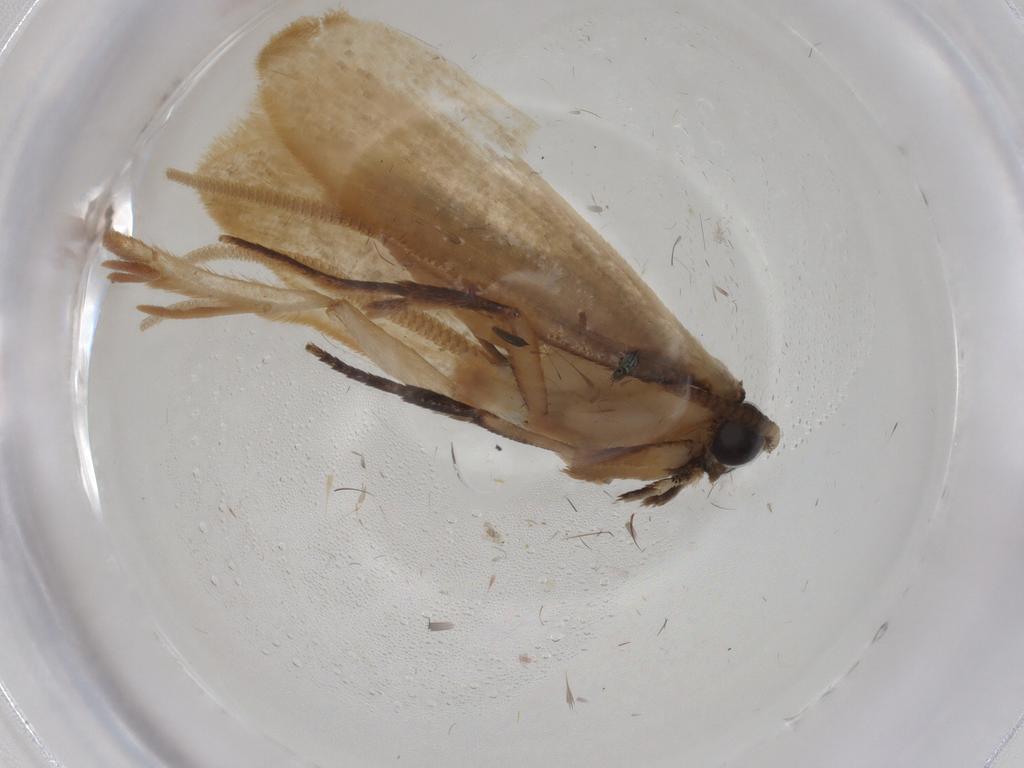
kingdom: Animalia
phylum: Arthropoda
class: Insecta
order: Lepidoptera
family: Tineidae
